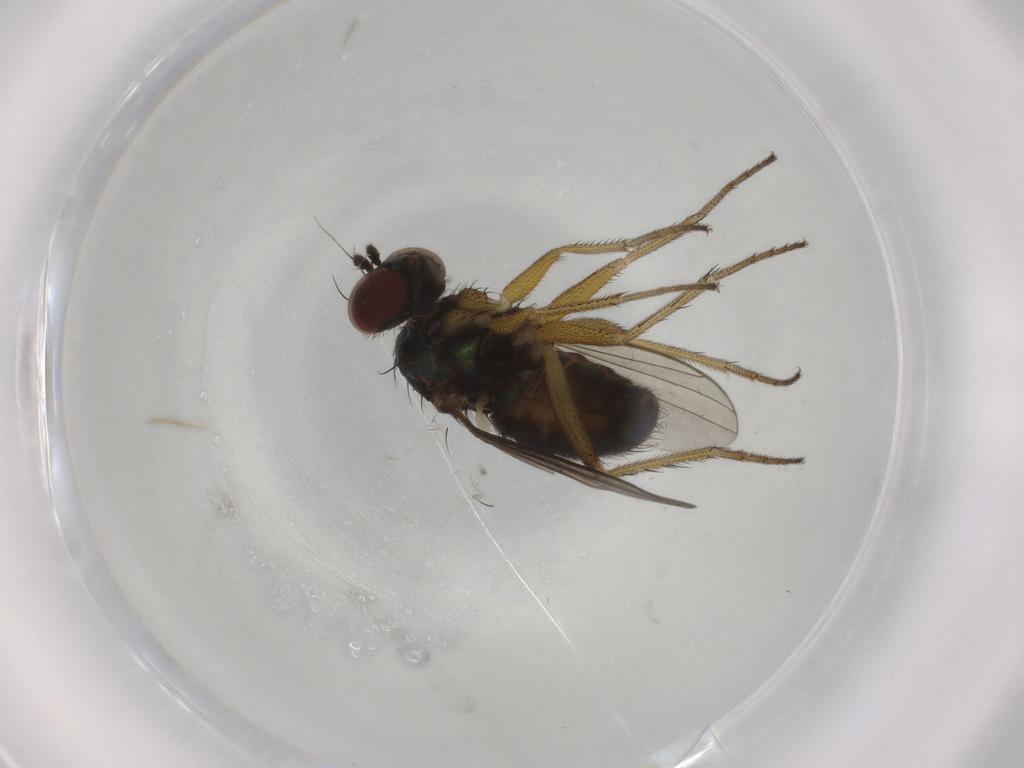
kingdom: Animalia
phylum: Arthropoda
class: Insecta
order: Diptera
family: Dolichopodidae
